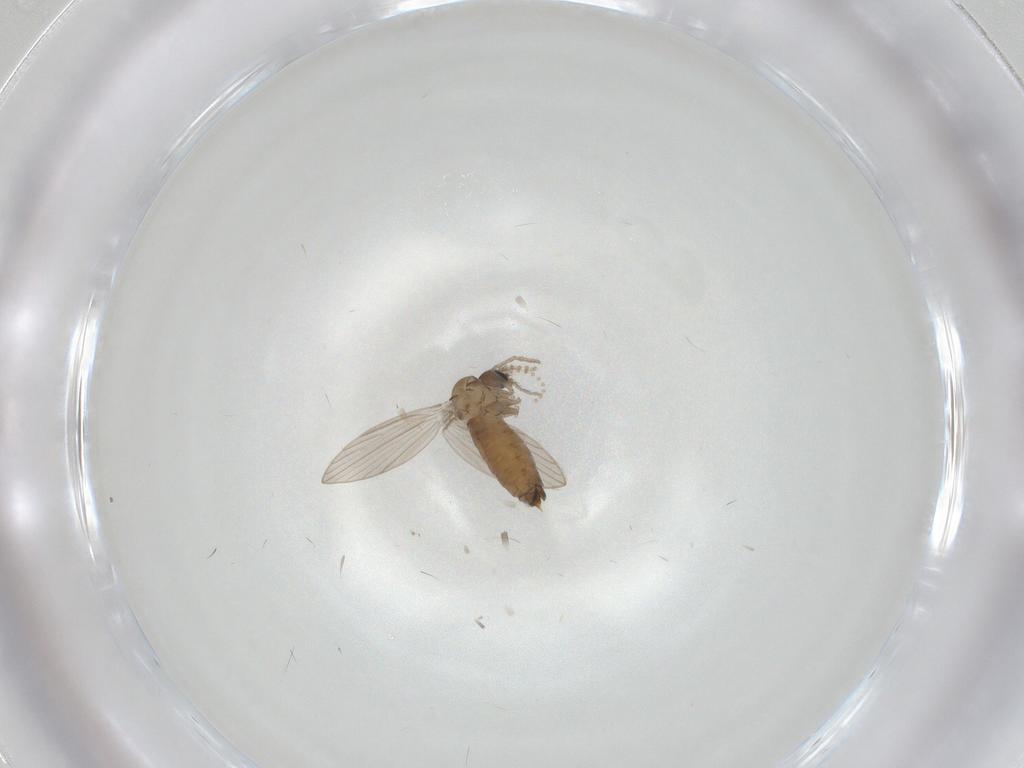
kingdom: Animalia
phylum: Arthropoda
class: Insecta
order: Diptera
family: Psychodidae
